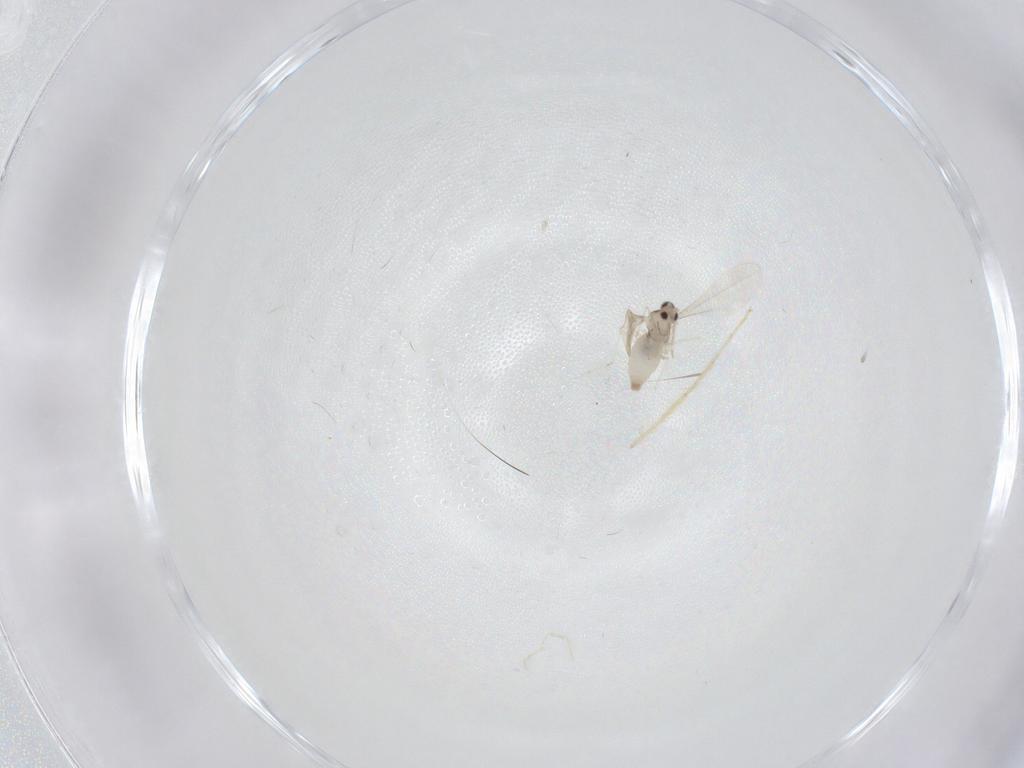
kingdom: Animalia
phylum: Arthropoda
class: Insecta
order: Diptera
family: Chironomidae
